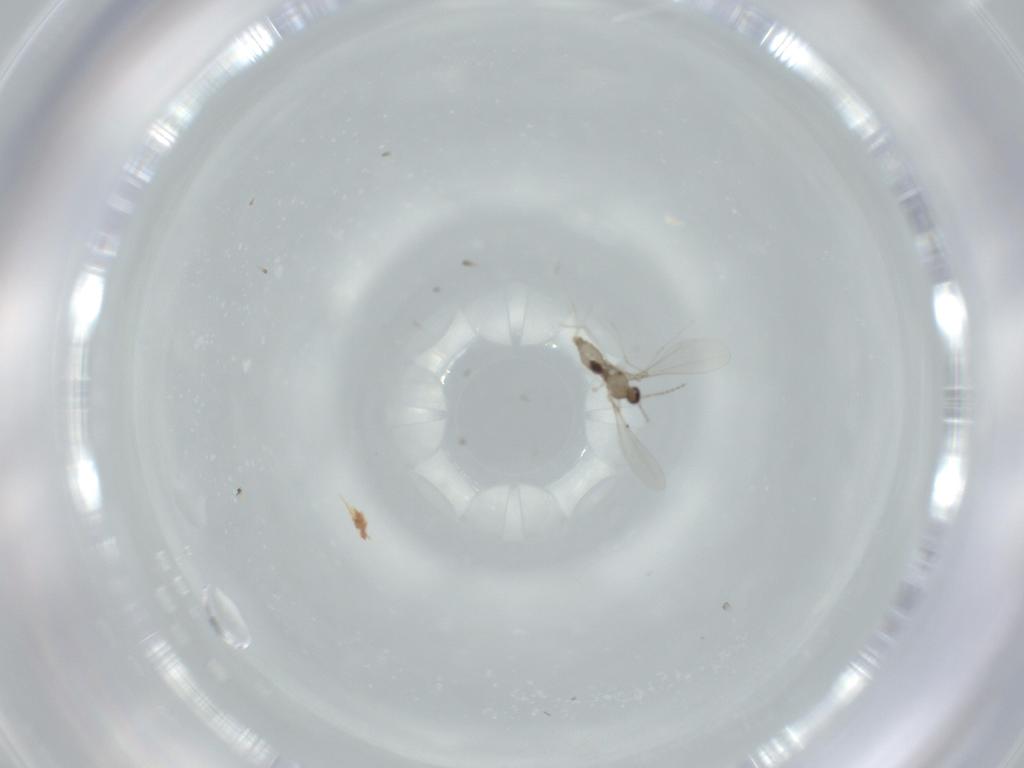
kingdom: Animalia
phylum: Arthropoda
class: Insecta
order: Diptera
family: Cecidomyiidae
